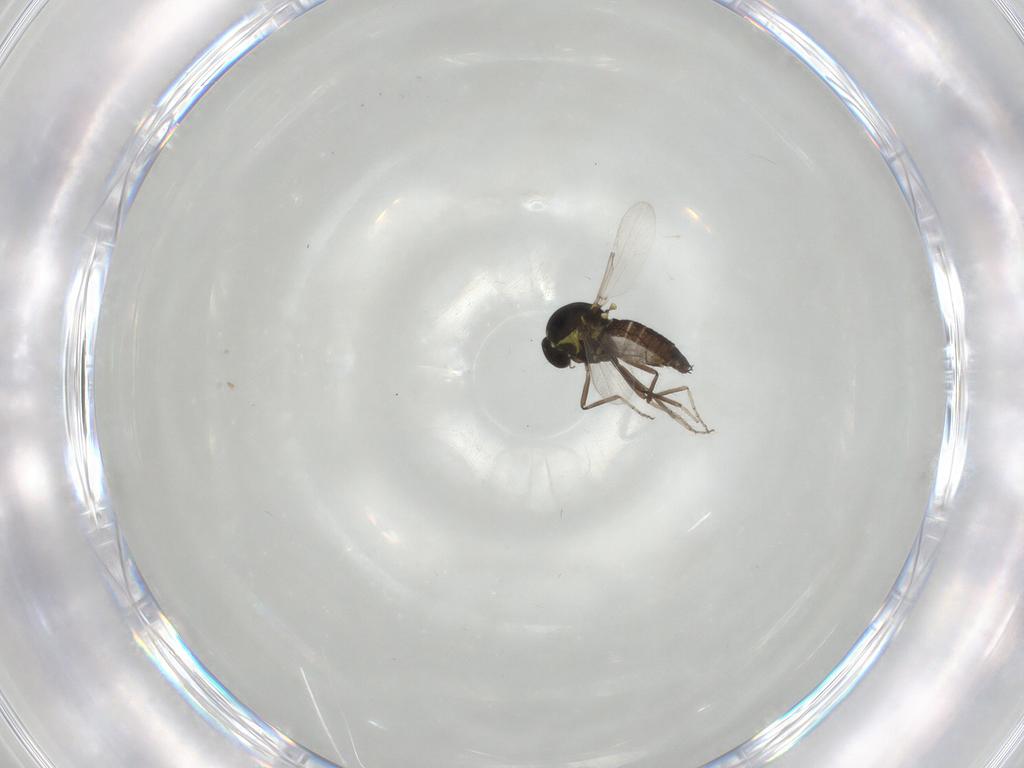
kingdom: Animalia
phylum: Arthropoda
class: Insecta
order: Diptera
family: Ceratopogonidae
